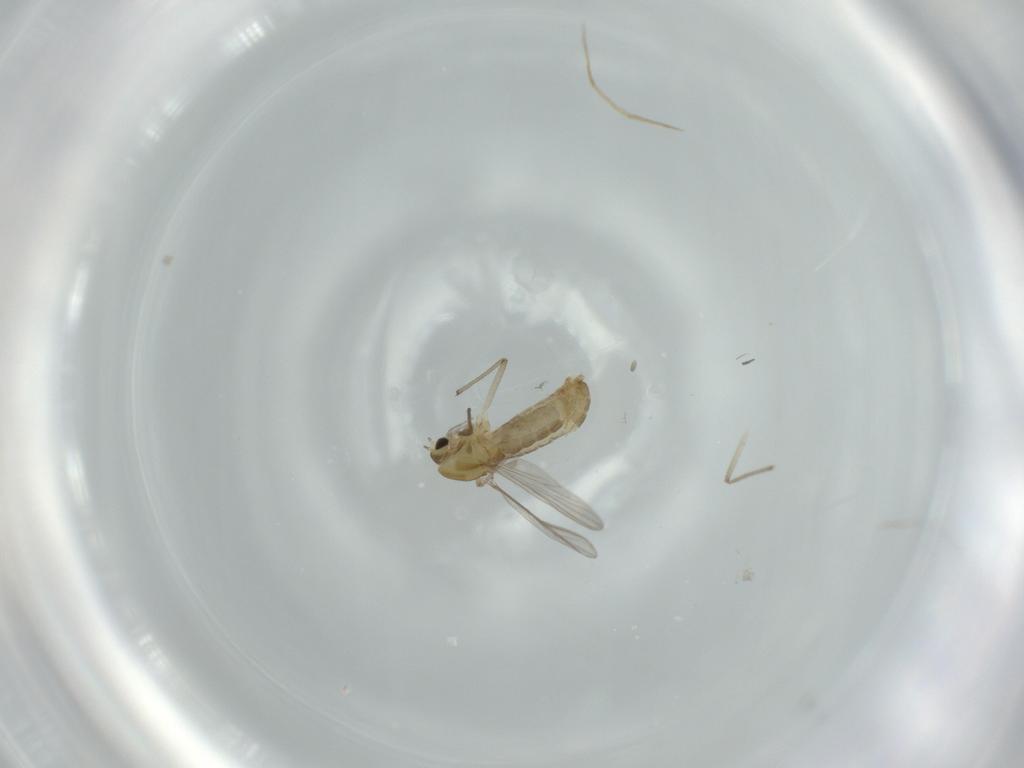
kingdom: Animalia
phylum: Arthropoda
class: Insecta
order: Diptera
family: Chironomidae
